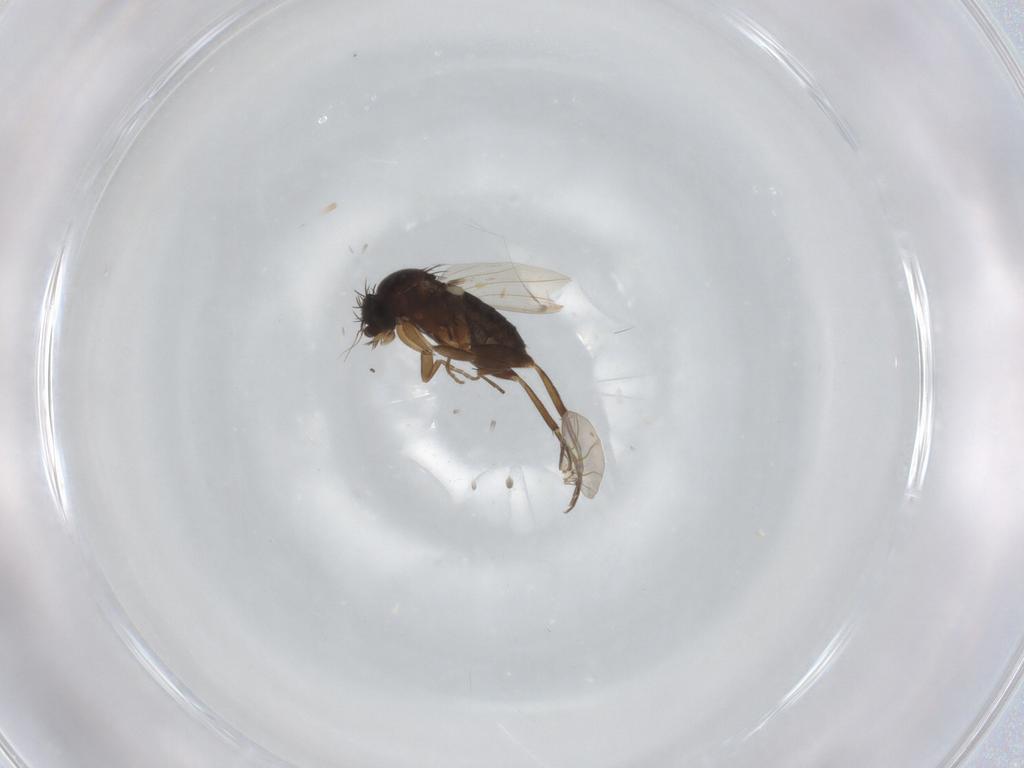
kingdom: Animalia
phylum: Arthropoda
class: Insecta
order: Diptera
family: Phoridae
